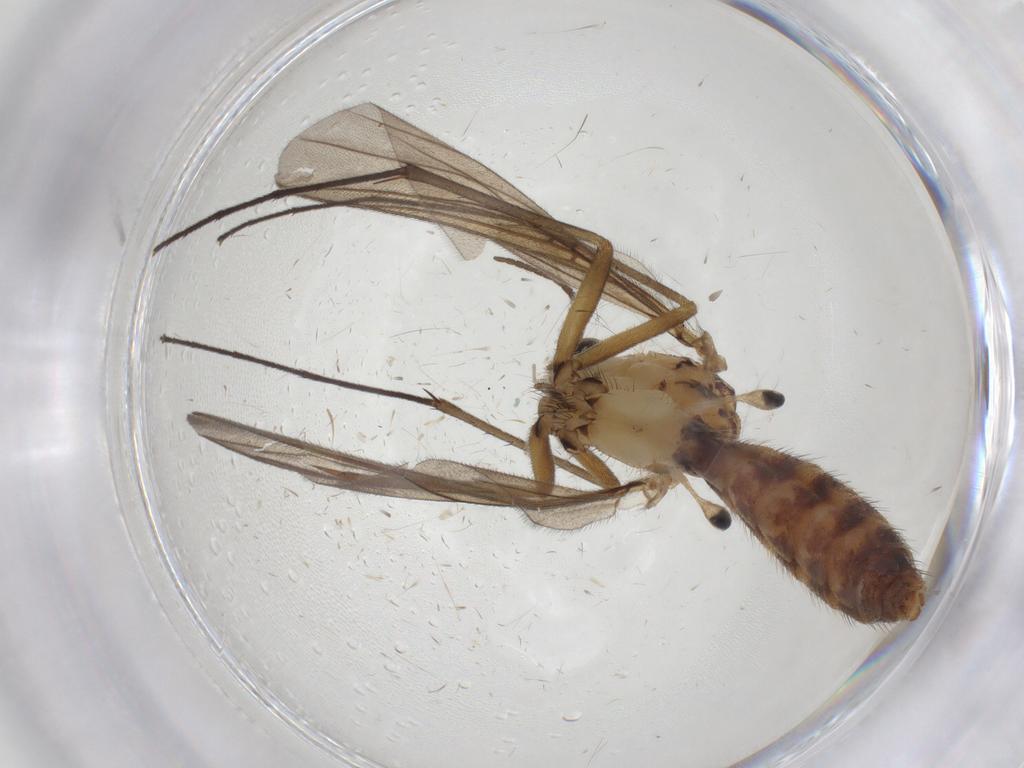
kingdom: Animalia
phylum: Arthropoda
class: Insecta
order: Diptera
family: Mycetophilidae
